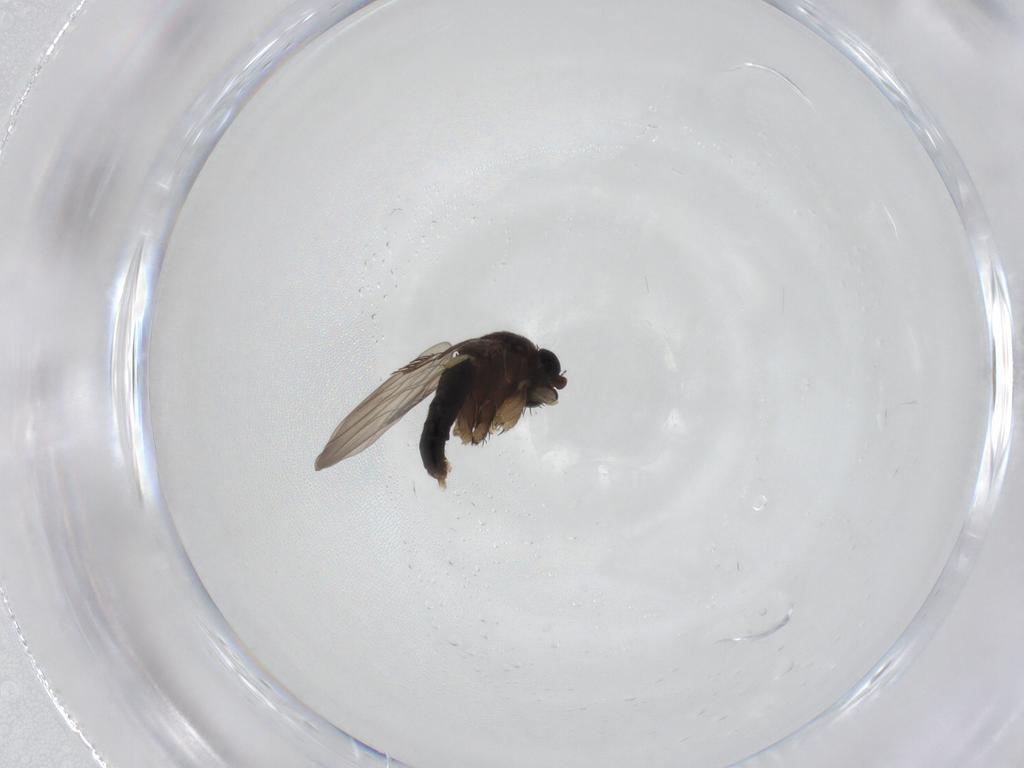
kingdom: Animalia
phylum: Arthropoda
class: Insecta
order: Diptera
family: Phoridae
